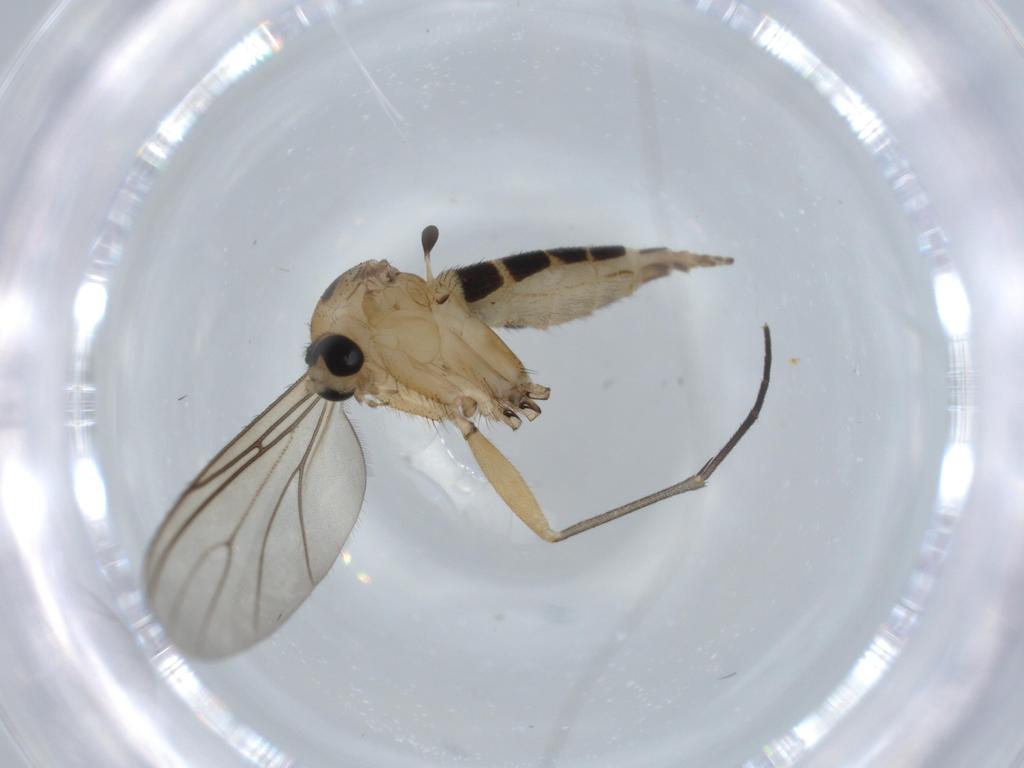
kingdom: Animalia
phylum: Arthropoda
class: Insecta
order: Diptera
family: Sciaridae
